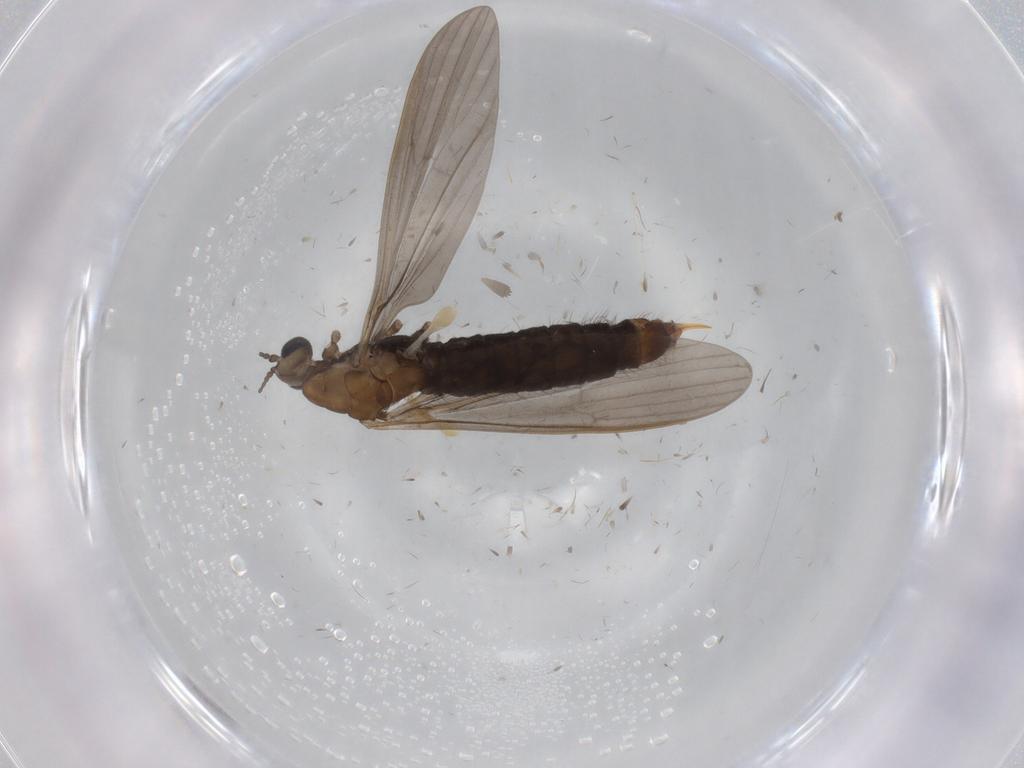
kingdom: Animalia
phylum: Arthropoda
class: Insecta
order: Diptera
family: Limoniidae
